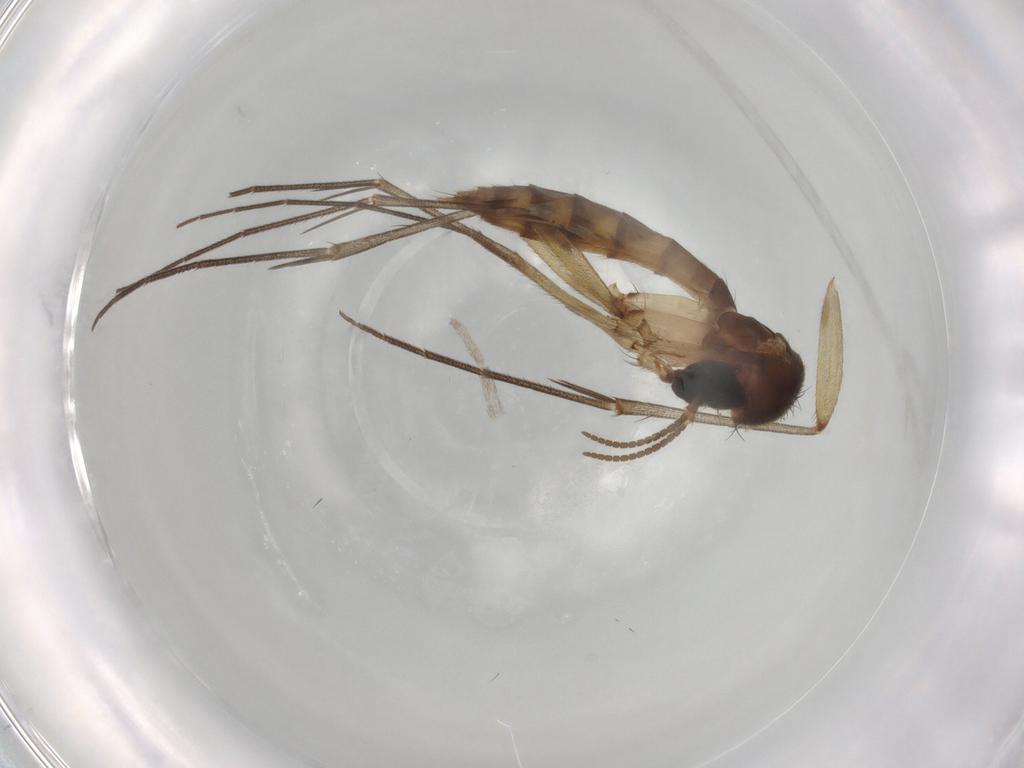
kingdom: Animalia
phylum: Arthropoda
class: Insecta
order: Diptera
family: Mycetophilidae
